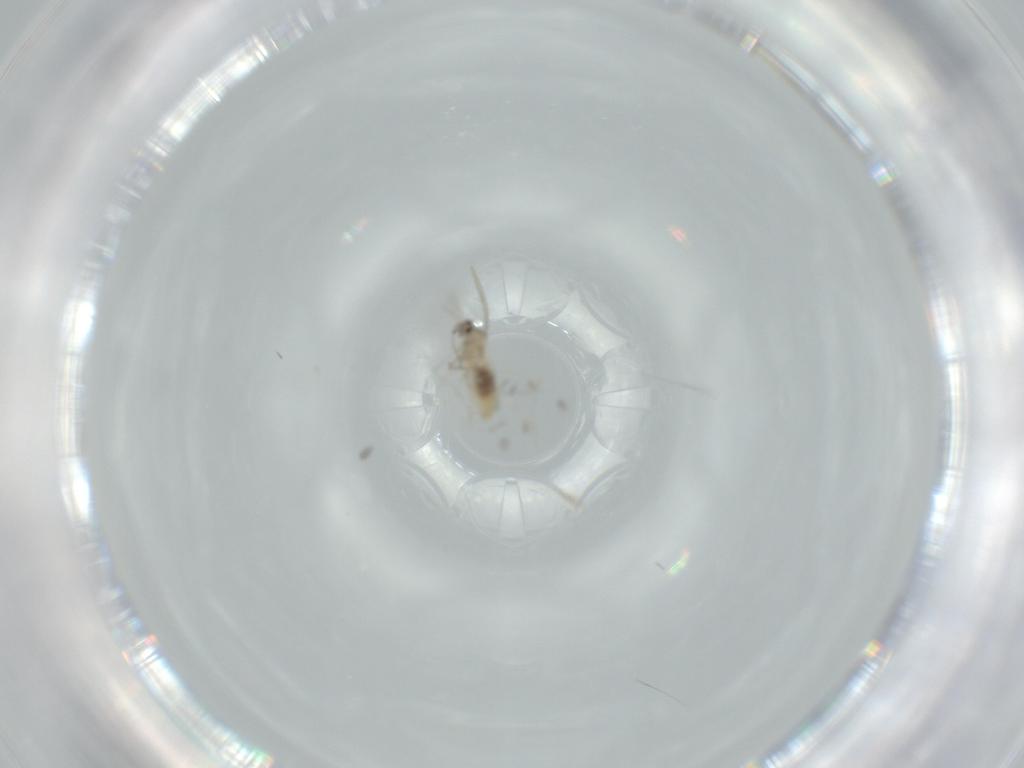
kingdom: Animalia
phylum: Arthropoda
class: Insecta
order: Diptera
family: Cecidomyiidae
